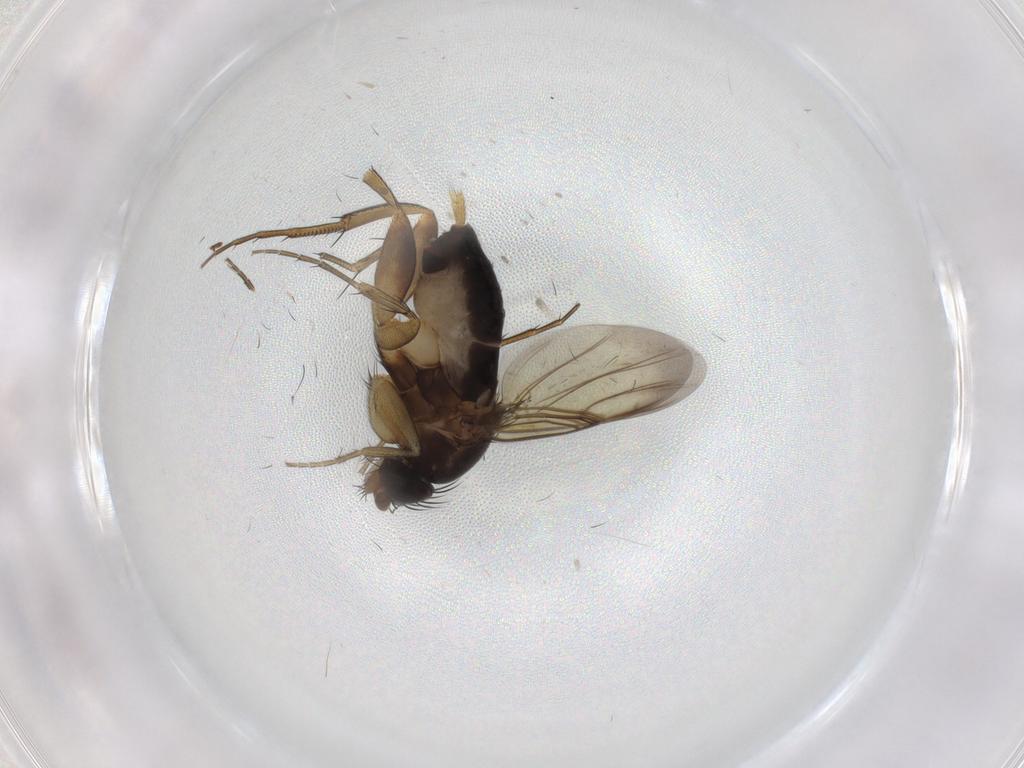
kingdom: Animalia
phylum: Arthropoda
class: Insecta
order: Diptera
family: Phoridae
